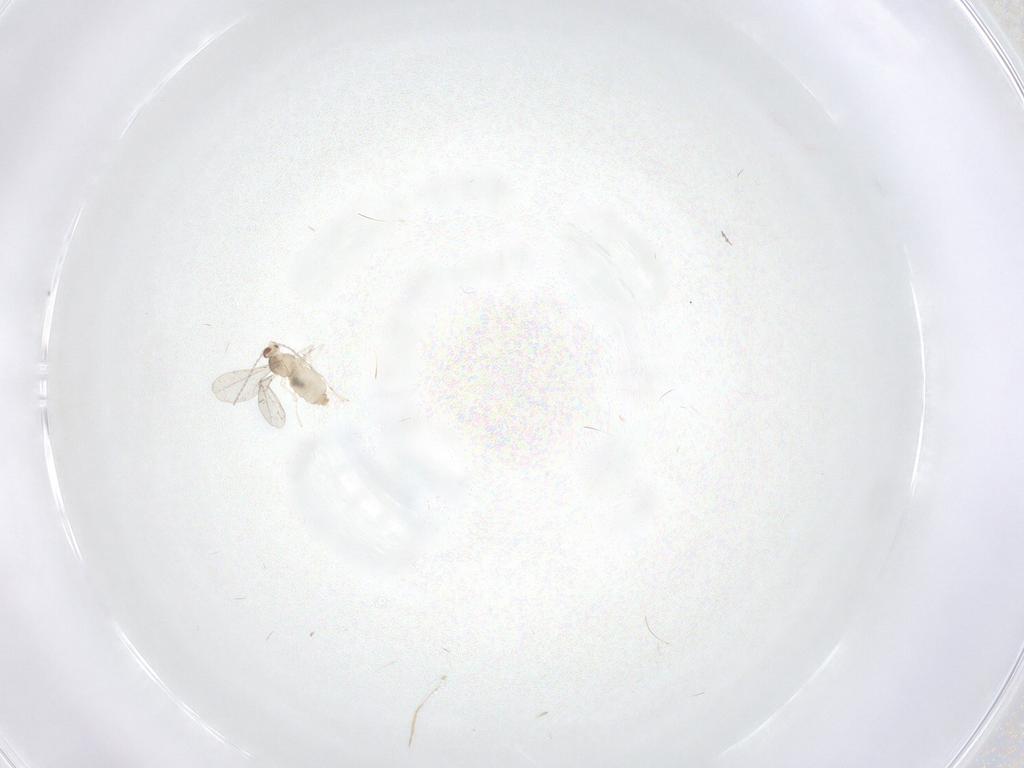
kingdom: Animalia
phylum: Arthropoda
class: Insecta
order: Diptera
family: Cecidomyiidae
